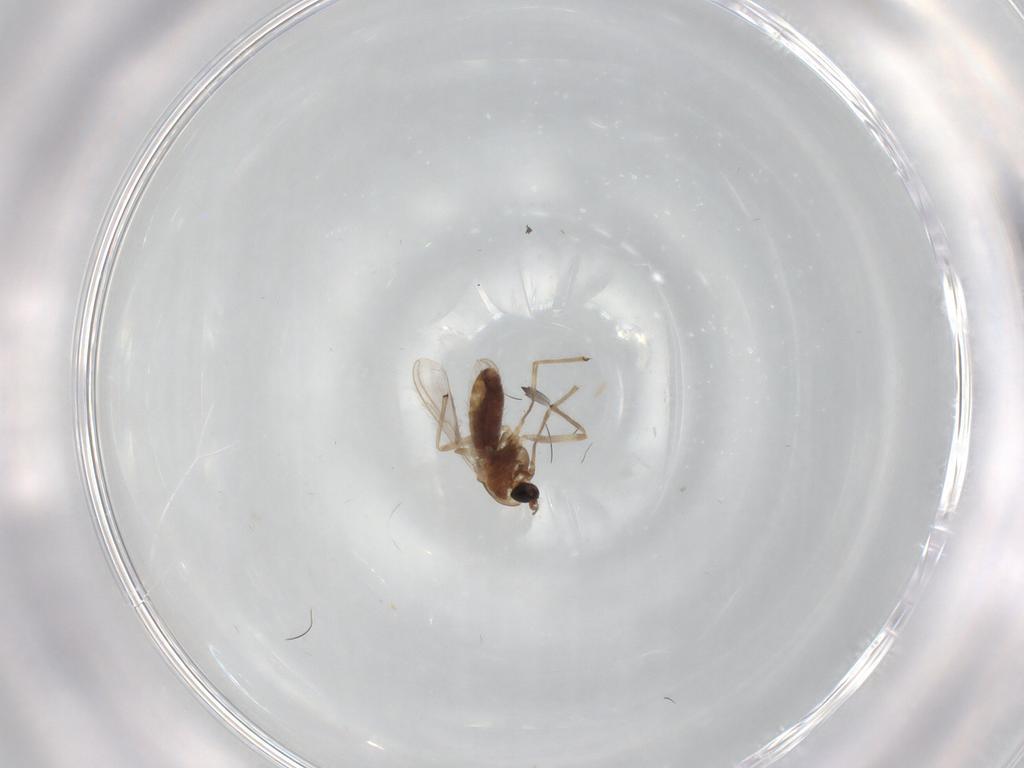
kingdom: Animalia
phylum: Arthropoda
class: Insecta
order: Diptera
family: Chironomidae
